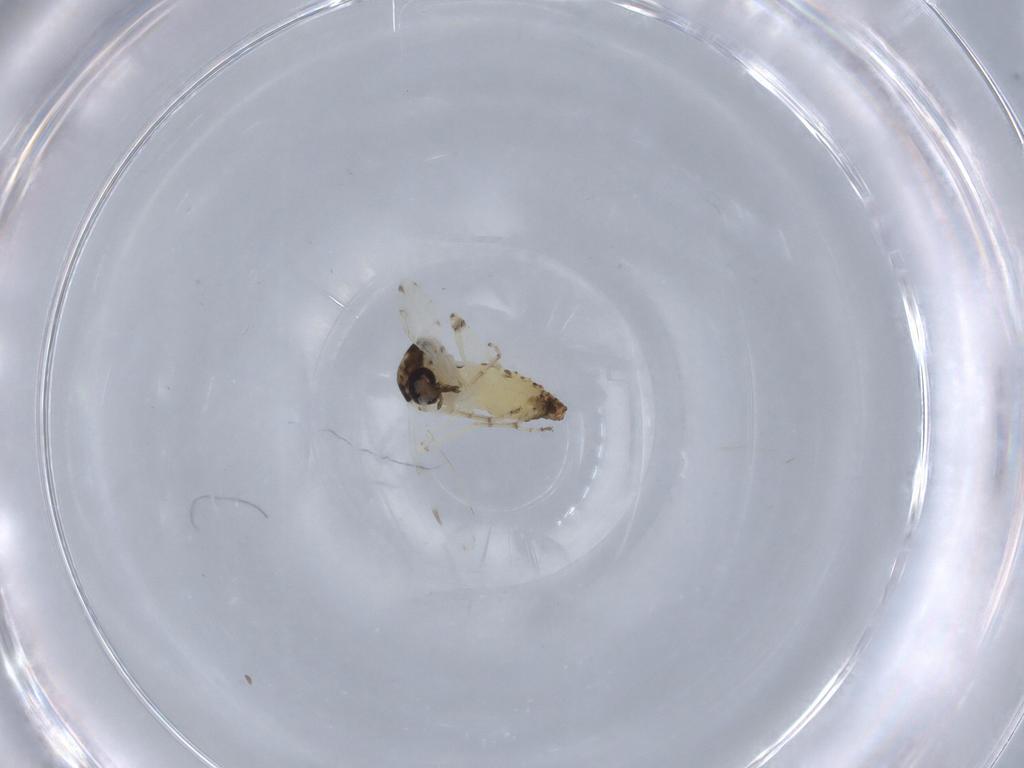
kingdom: Animalia
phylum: Arthropoda
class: Insecta
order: Diptera
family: Ceratopogonidae
